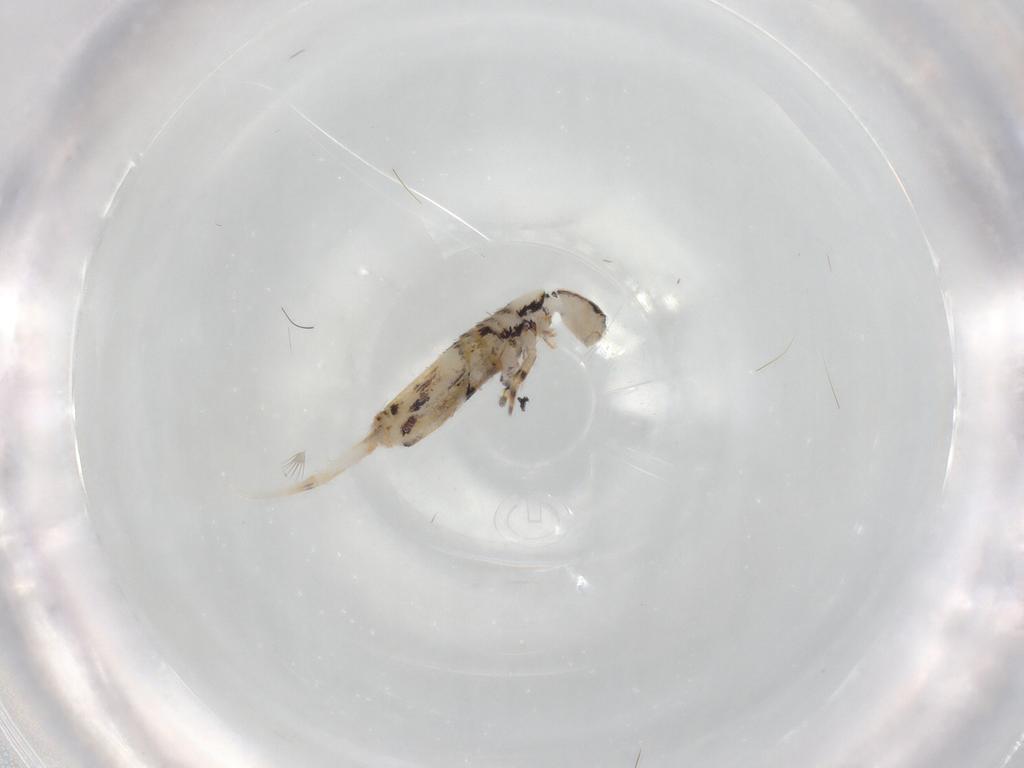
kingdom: Animalia
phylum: Arthropoda
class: Collembola
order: Entomobryomorpha
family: Entomobryidae
